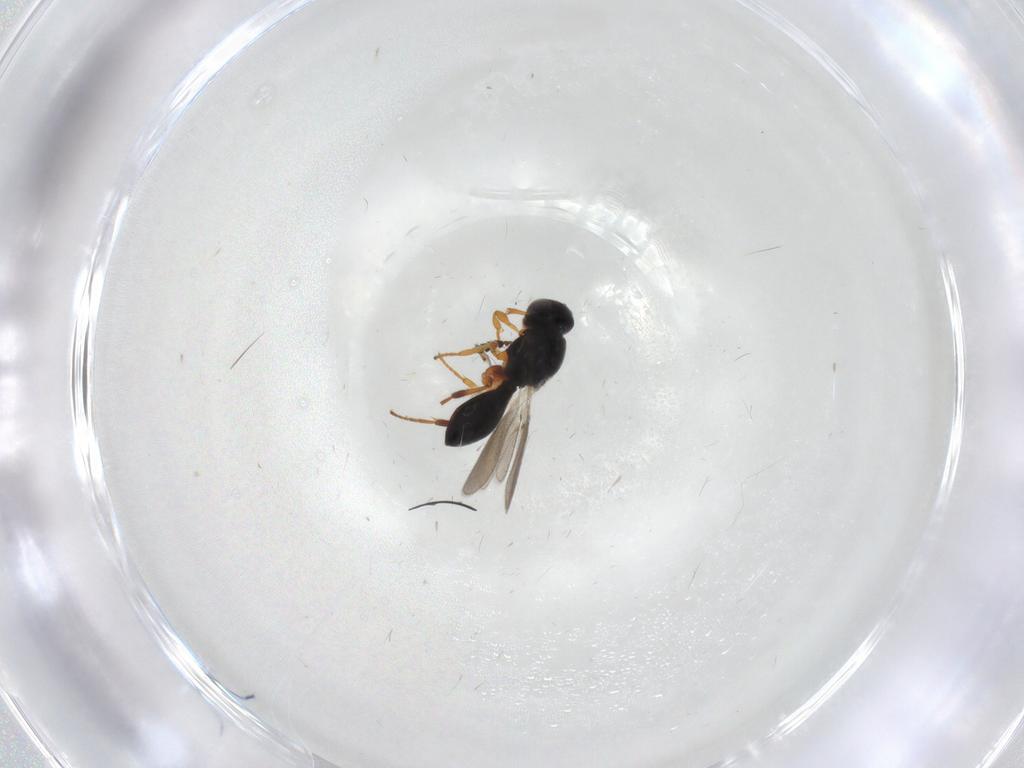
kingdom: Animalia
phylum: Arthropoda
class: Insecta
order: Hymenoptera
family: Platygastridae
